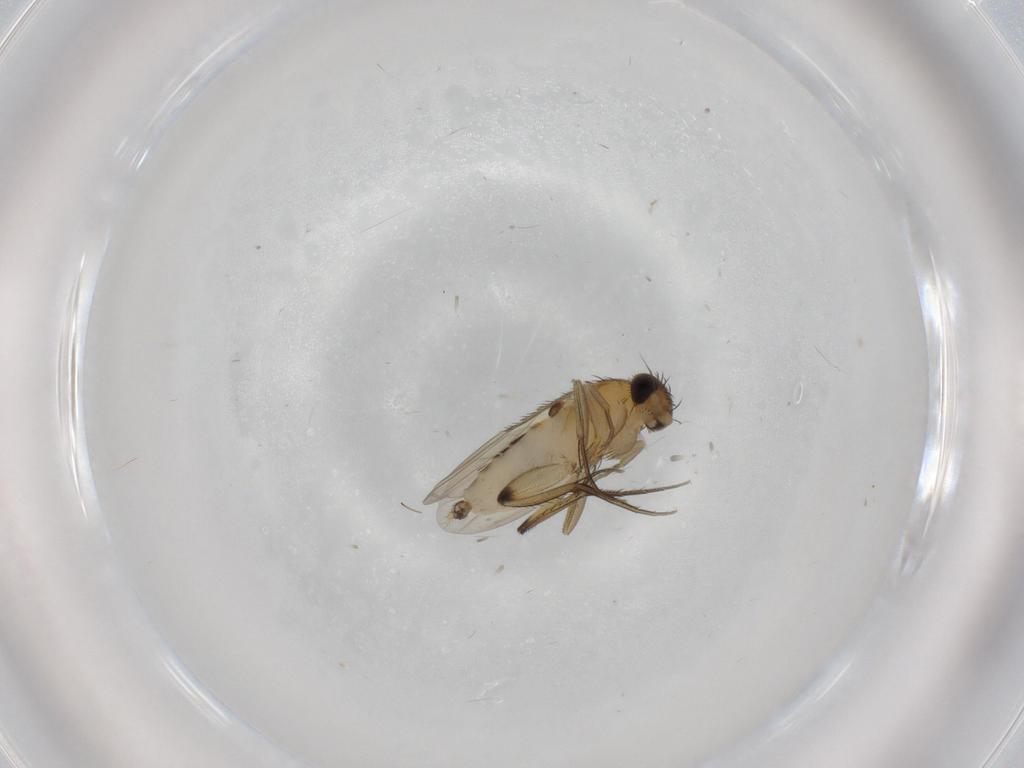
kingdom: Animalia
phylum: Arthropoda
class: Insecta
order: Diptera
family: Phoridae
